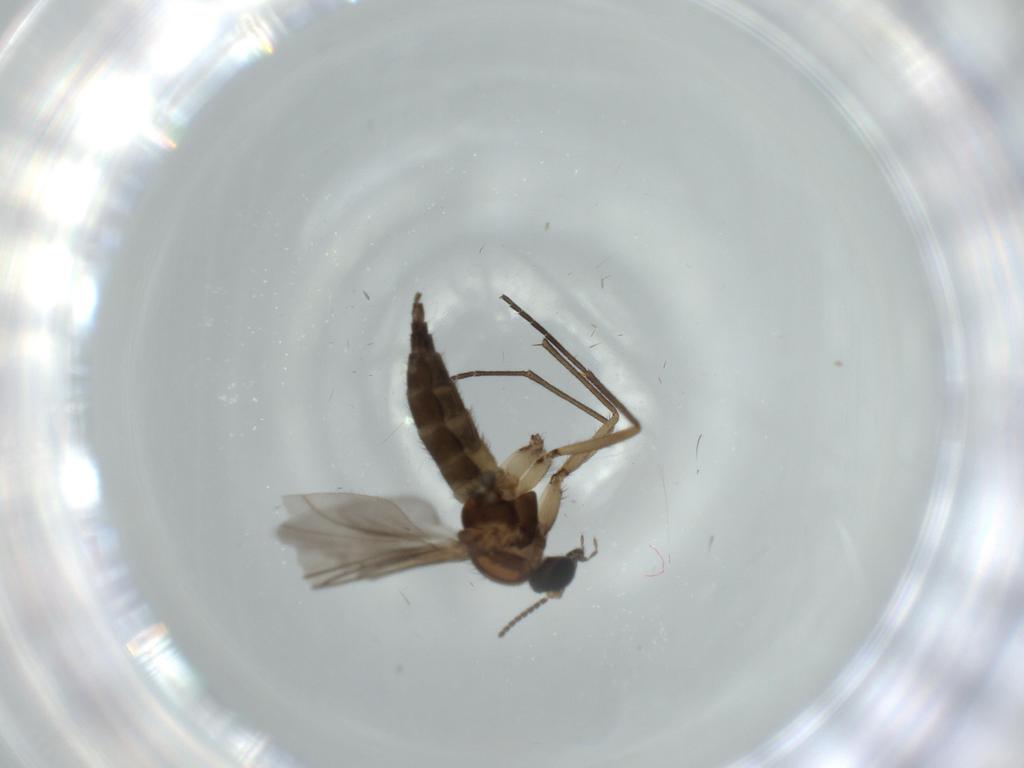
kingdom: Animalia
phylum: Arthropoda
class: Insecta
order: Diptera
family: Sciaridae
